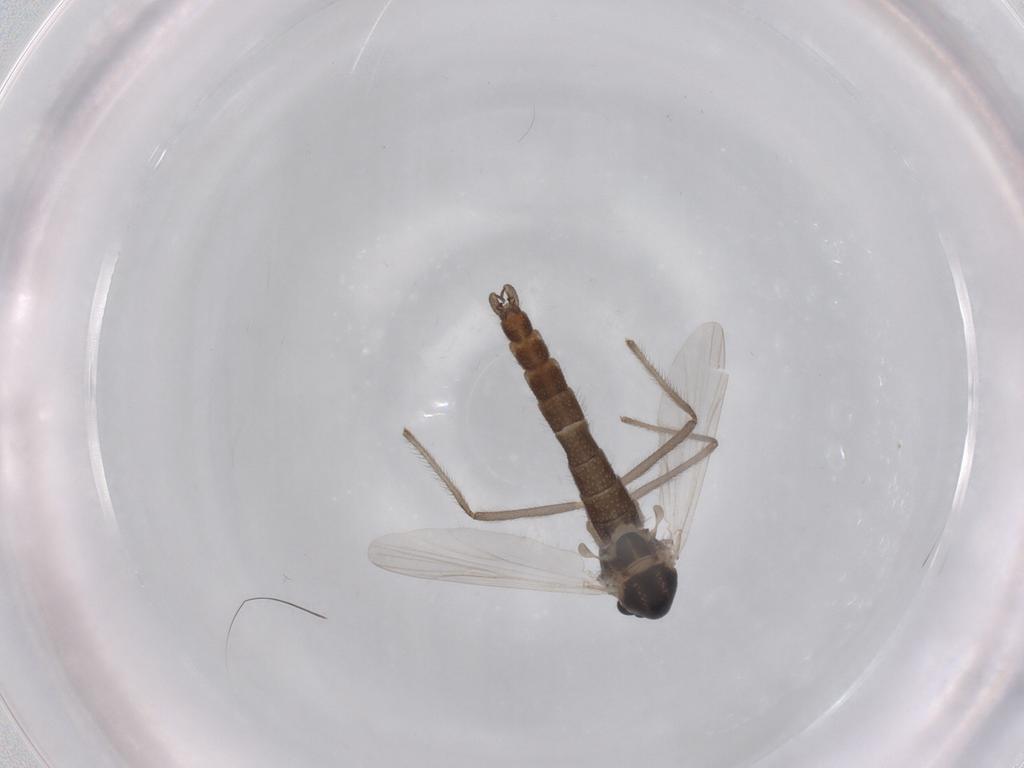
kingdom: Animalia
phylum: Arthropoda
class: Insecta
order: Diptera
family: Chironomidae
